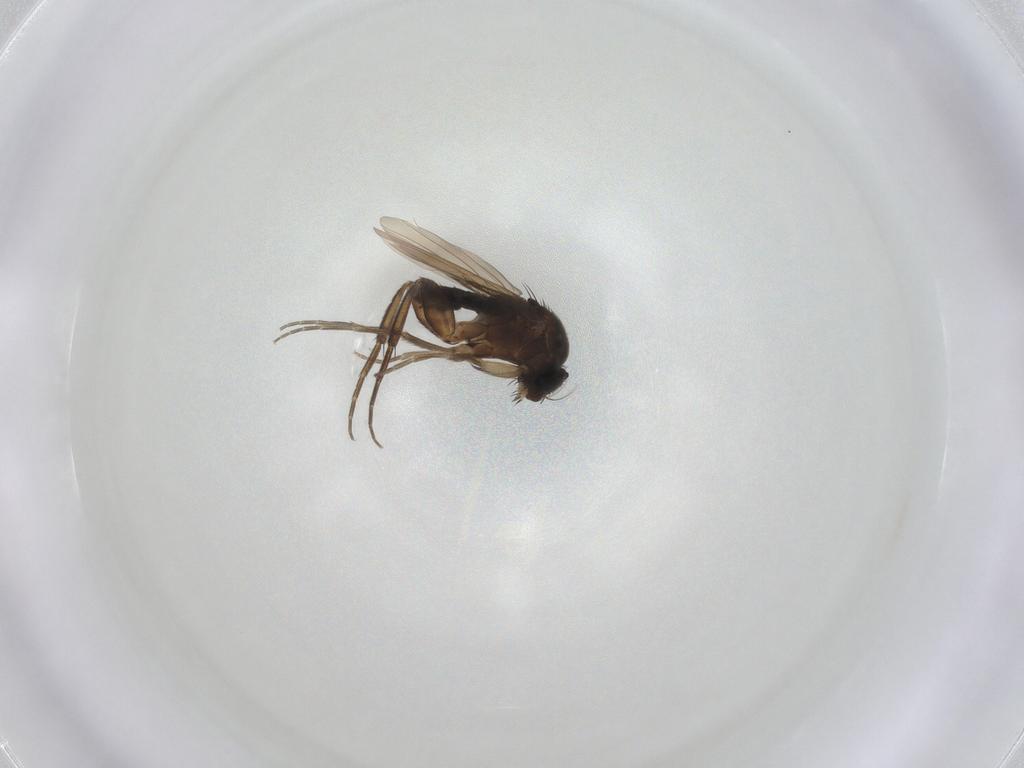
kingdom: Animalia
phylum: Arthropoda
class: Insecta
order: Diptera
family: Phoridae
